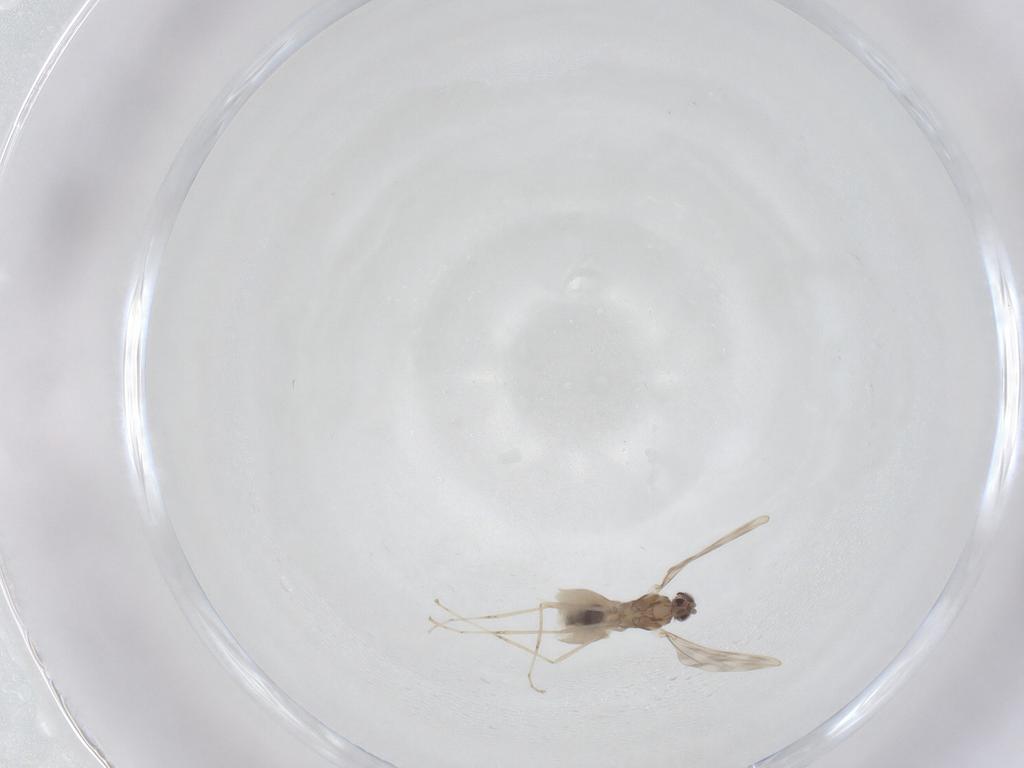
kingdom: Animalia
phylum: Arthropoda
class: Insecta
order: Diptera
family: Cecidomyiidae
